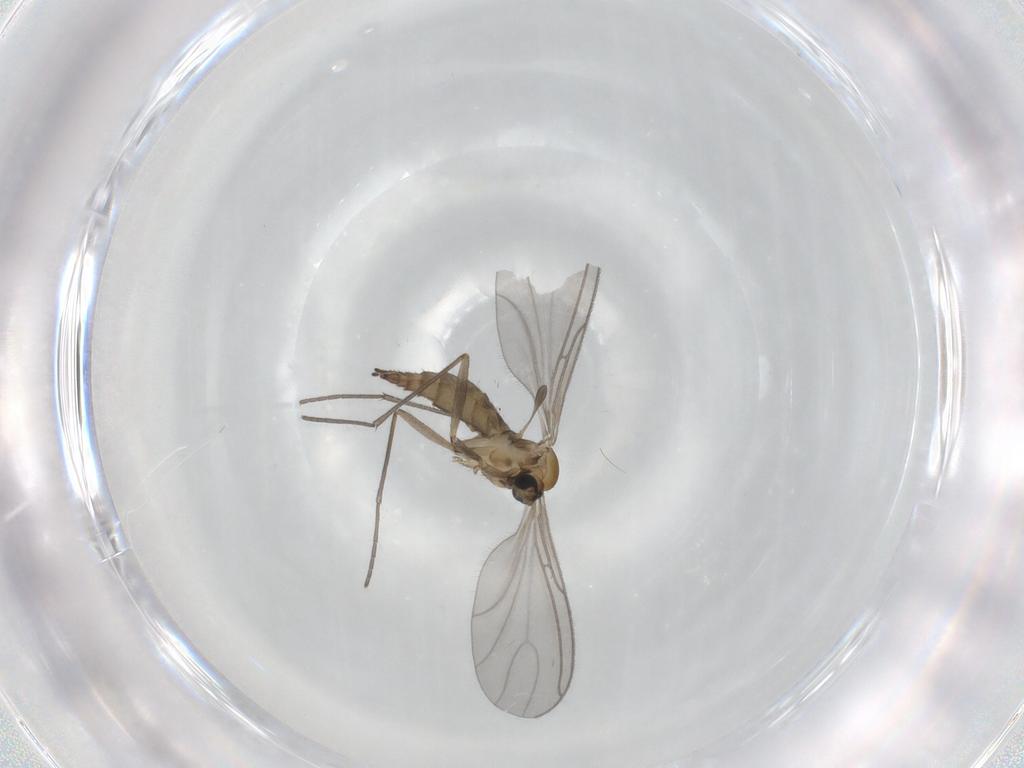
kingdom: Animalia
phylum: Arthropoda
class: Insecta
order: Diptera
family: Sciaridae
